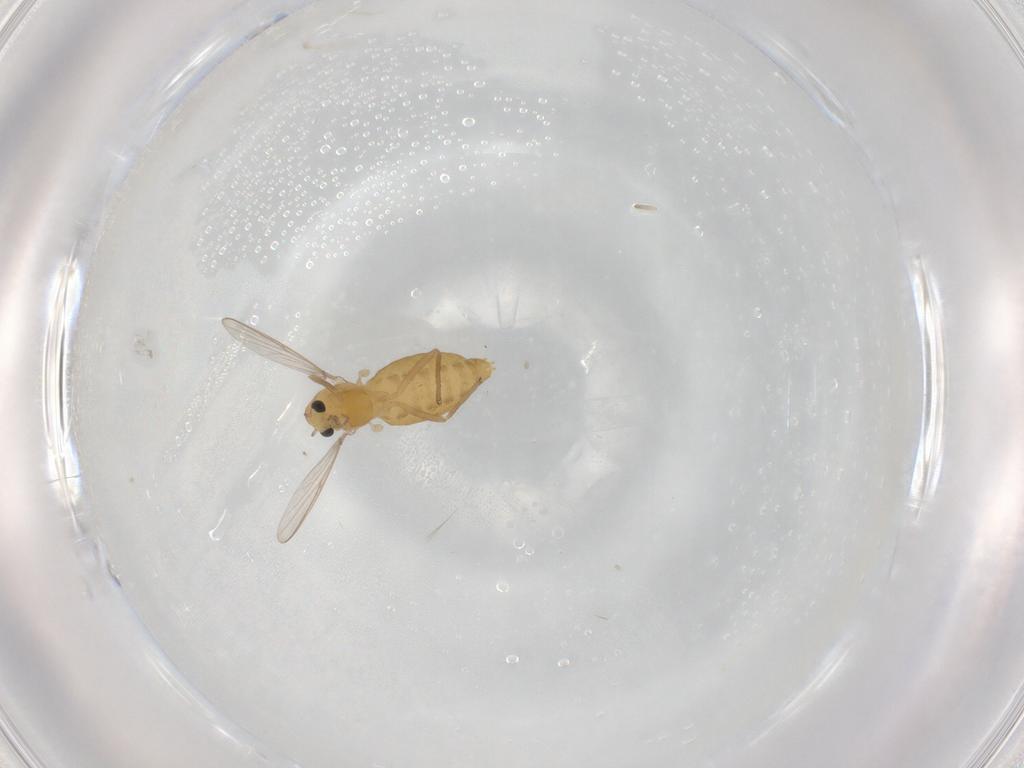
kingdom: Animalia
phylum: Arthropoda
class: Insecta
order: Diptera
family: Chironomidae
